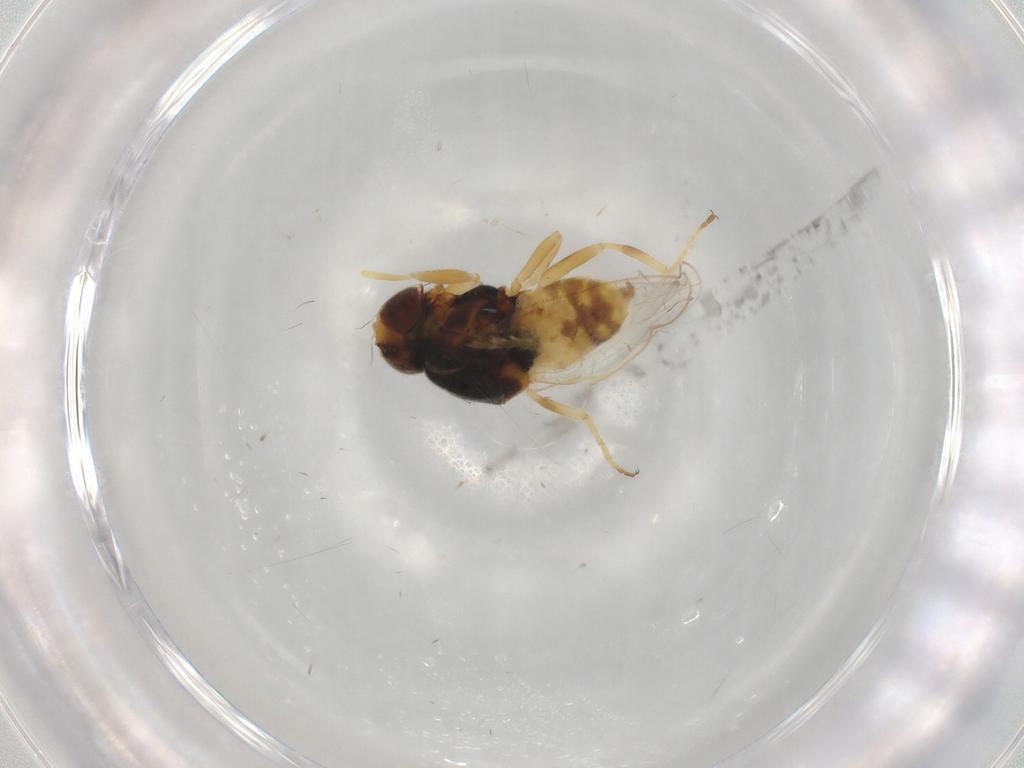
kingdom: Animalia
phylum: Arthropoda
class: Insecta
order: Diptera
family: Chloropidae
